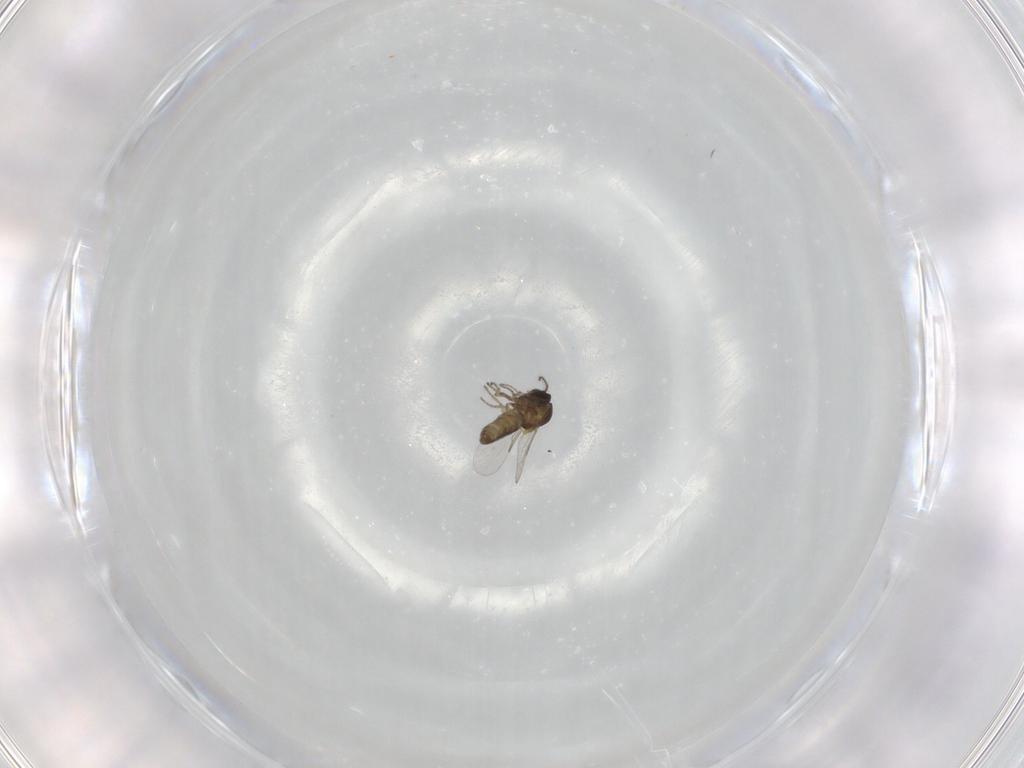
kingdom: Animalia
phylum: Arthropoda
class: Insecta
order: Diptera
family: Ceratopogonidae
